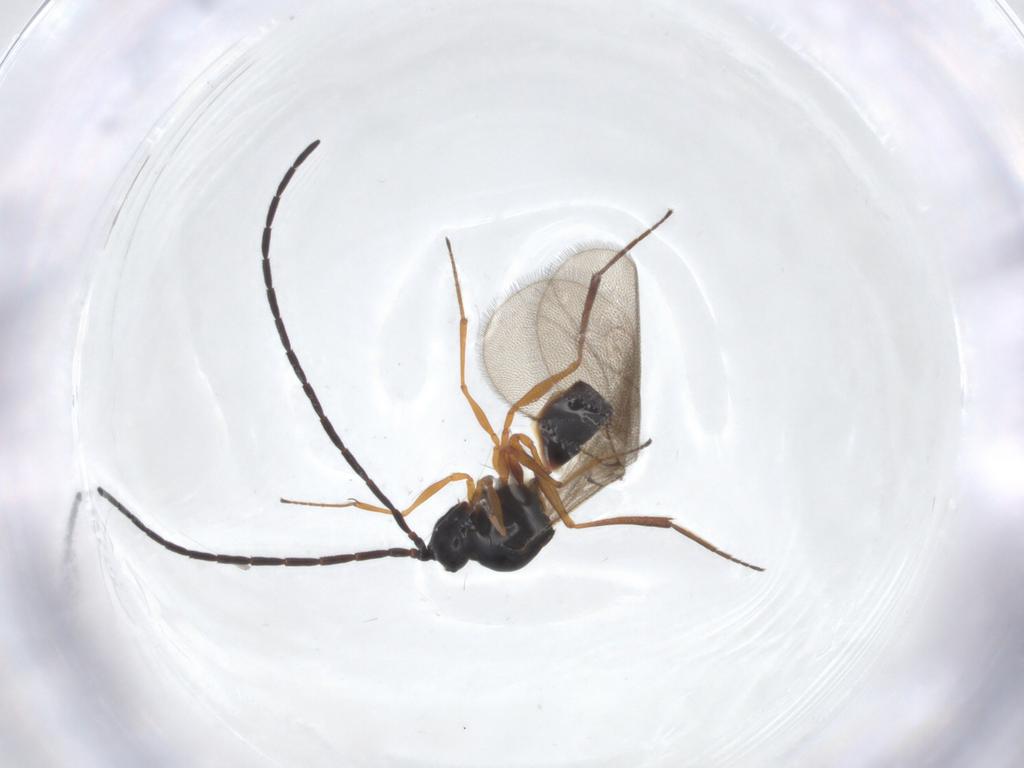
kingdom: Animalia
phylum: Arthropoda
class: Insecta
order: Hymenoptera
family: Figitidae
